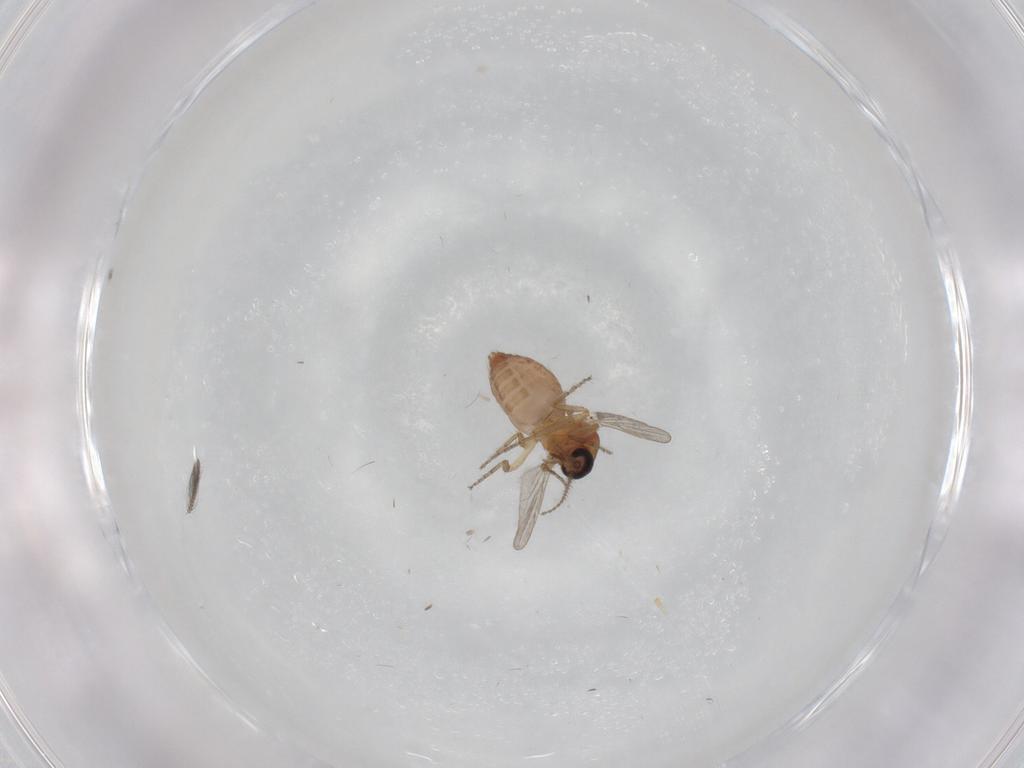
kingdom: Animalia
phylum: Arthropoda
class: Insecta
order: Diptera
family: Ceratopogonidae
